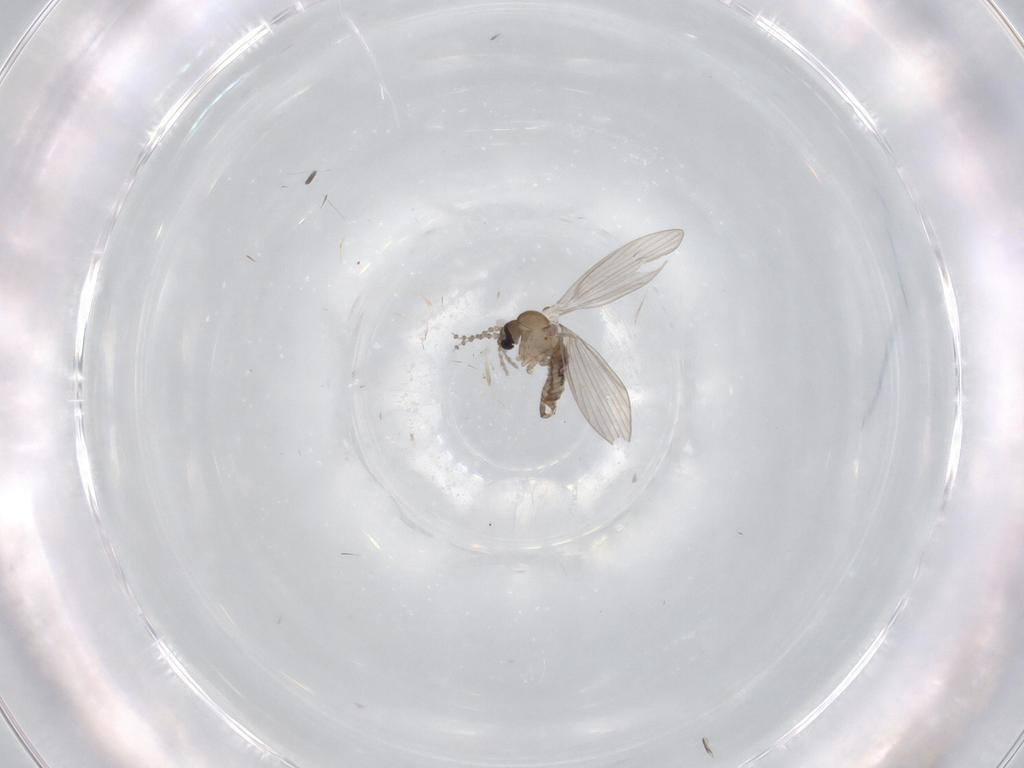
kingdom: Animalia
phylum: Arthropoda
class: Insecta
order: Diptera
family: Psychodidae
